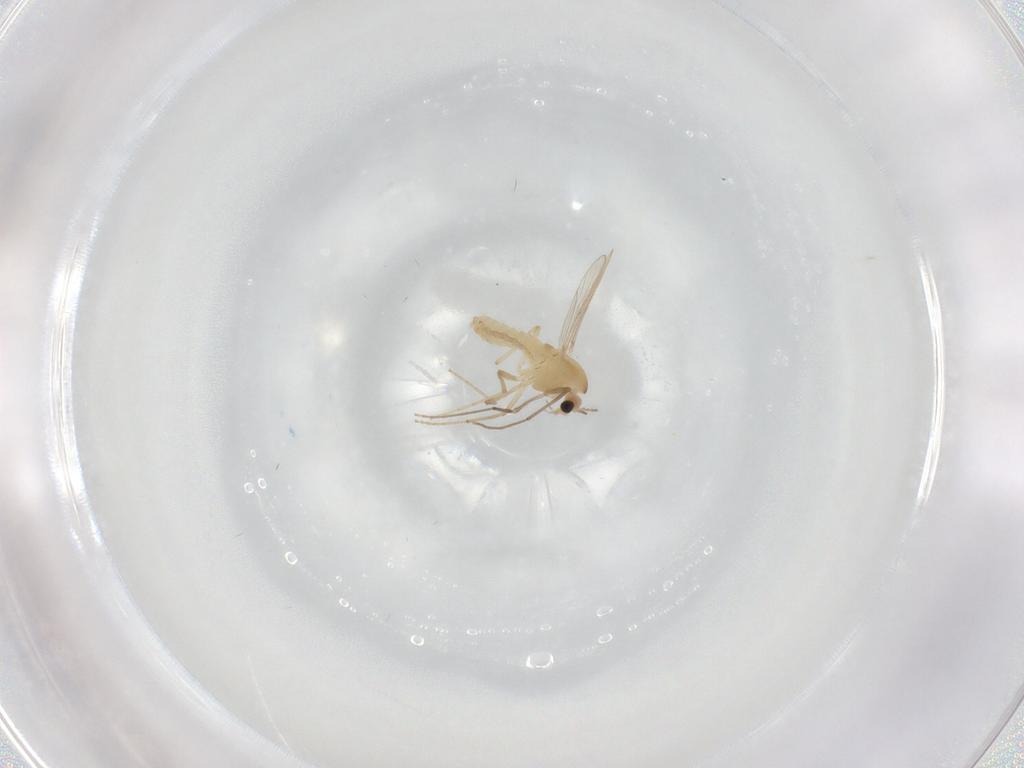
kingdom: Animalia
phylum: Arthropoda
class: Insecta
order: Diptera
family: Chironomidae
